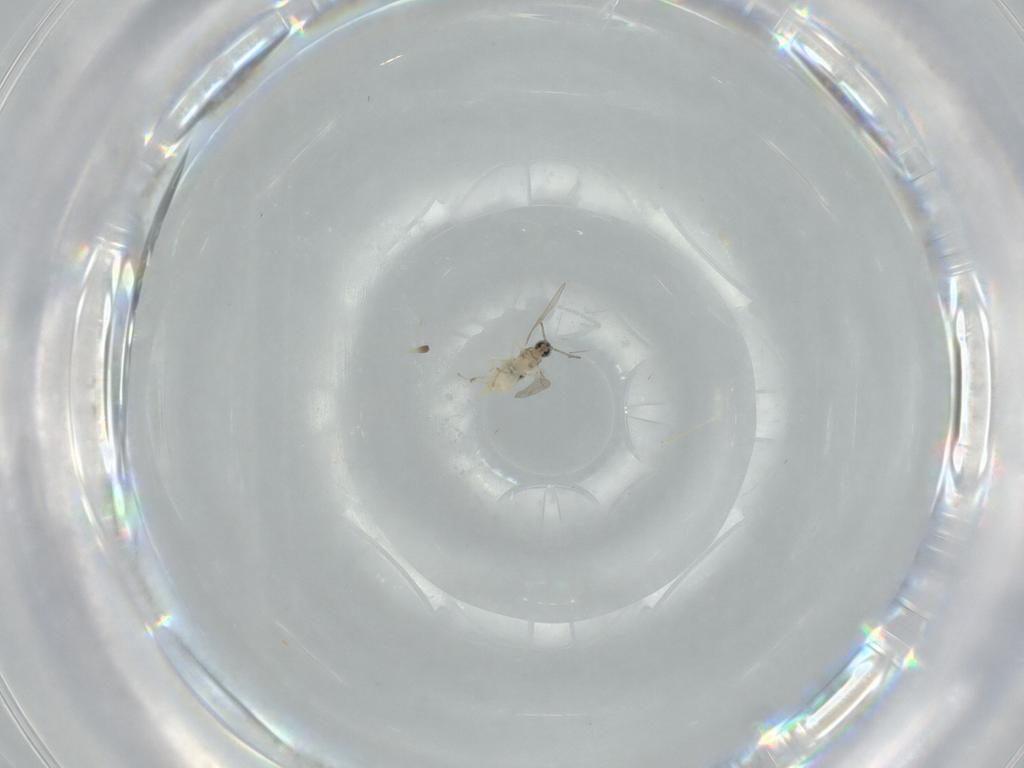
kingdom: Animalia
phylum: Arthropoda
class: Insecta
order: Diptera
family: Cecidomyiidae
